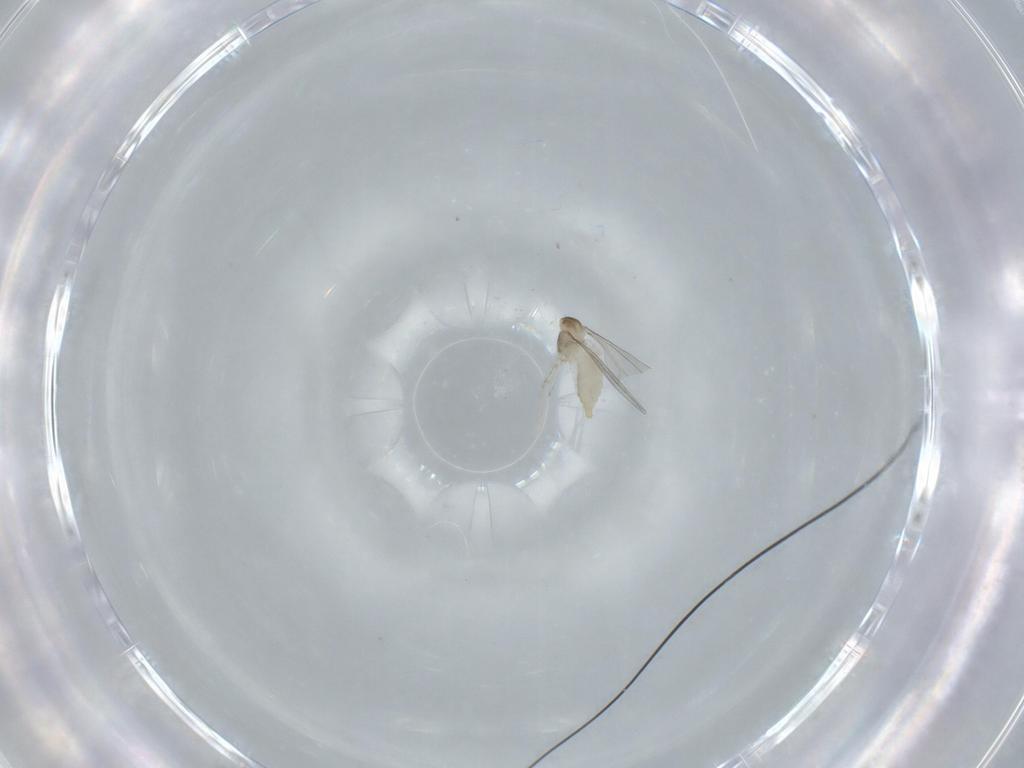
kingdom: Animalia
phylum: Arthropoda
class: Insecta
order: Diptera
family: Cecidomyiidae
